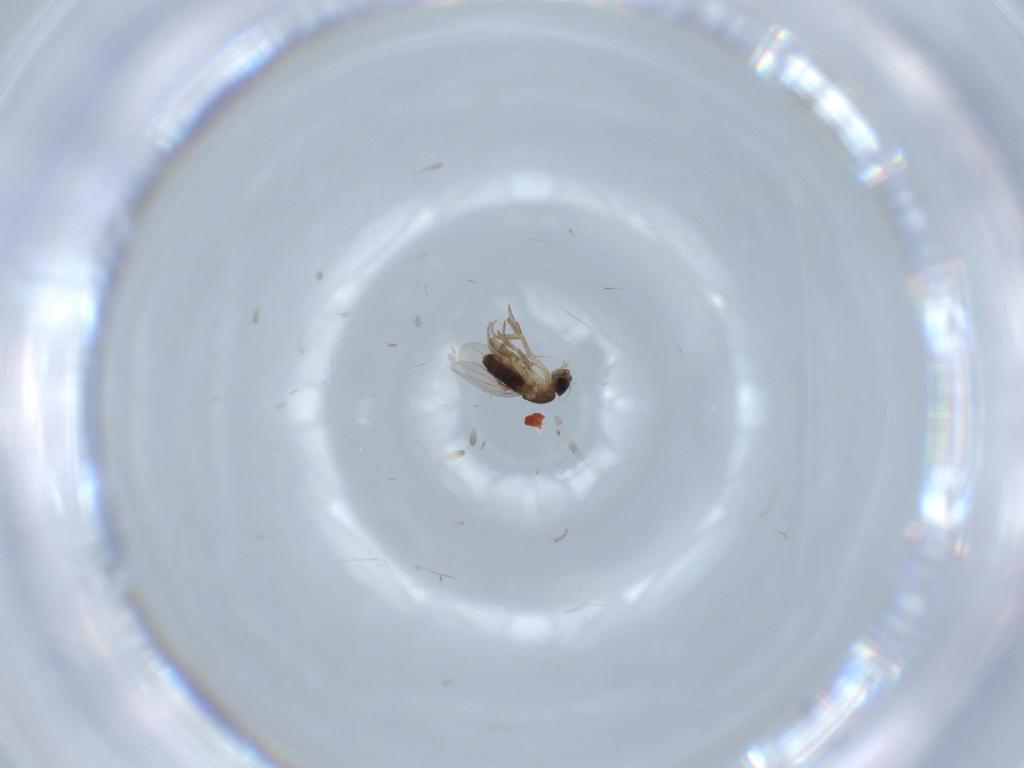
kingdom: Animalia
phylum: Arthropoda
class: Insecta
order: Diptera
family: Phoridae
